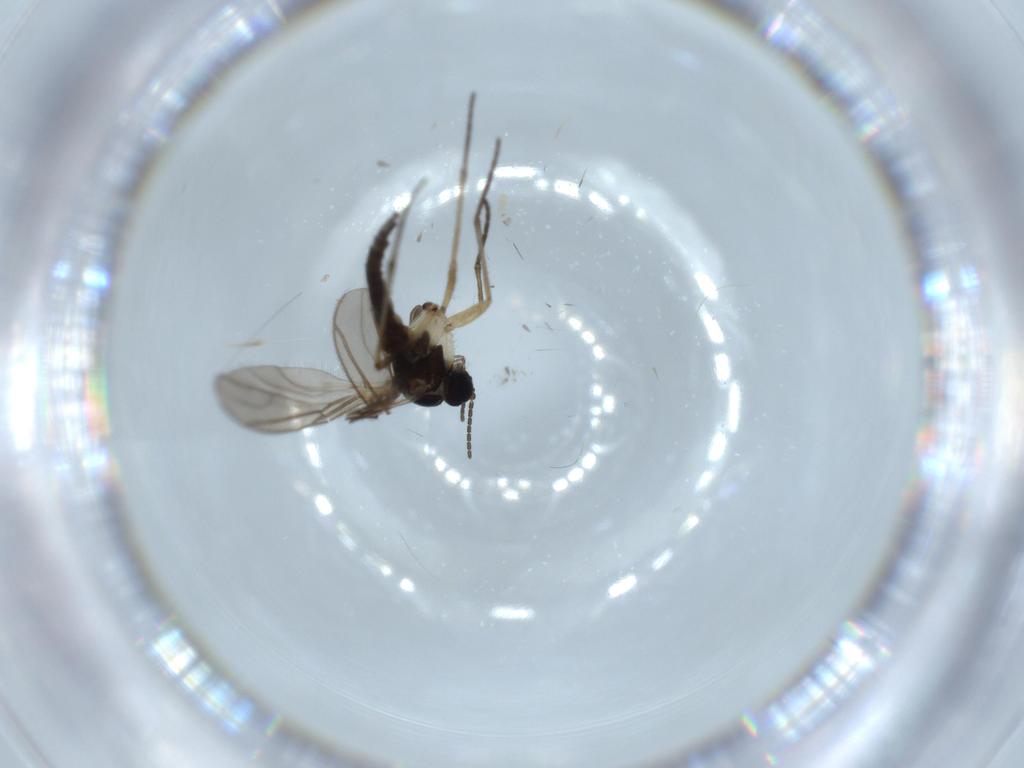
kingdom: Animalia
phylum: Arthropoda
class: Insecta
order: Diptera
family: Sciaridae
